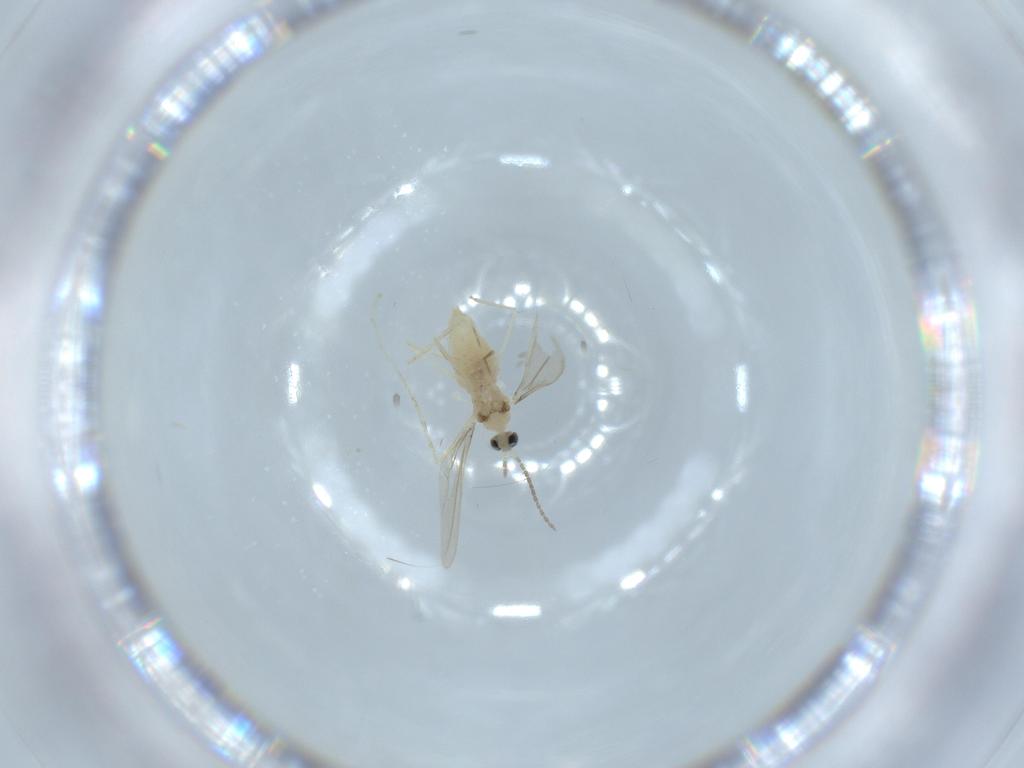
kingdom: Animalia
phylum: Arthropoda
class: Insecta
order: Diptera
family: Cecidomyiidae
